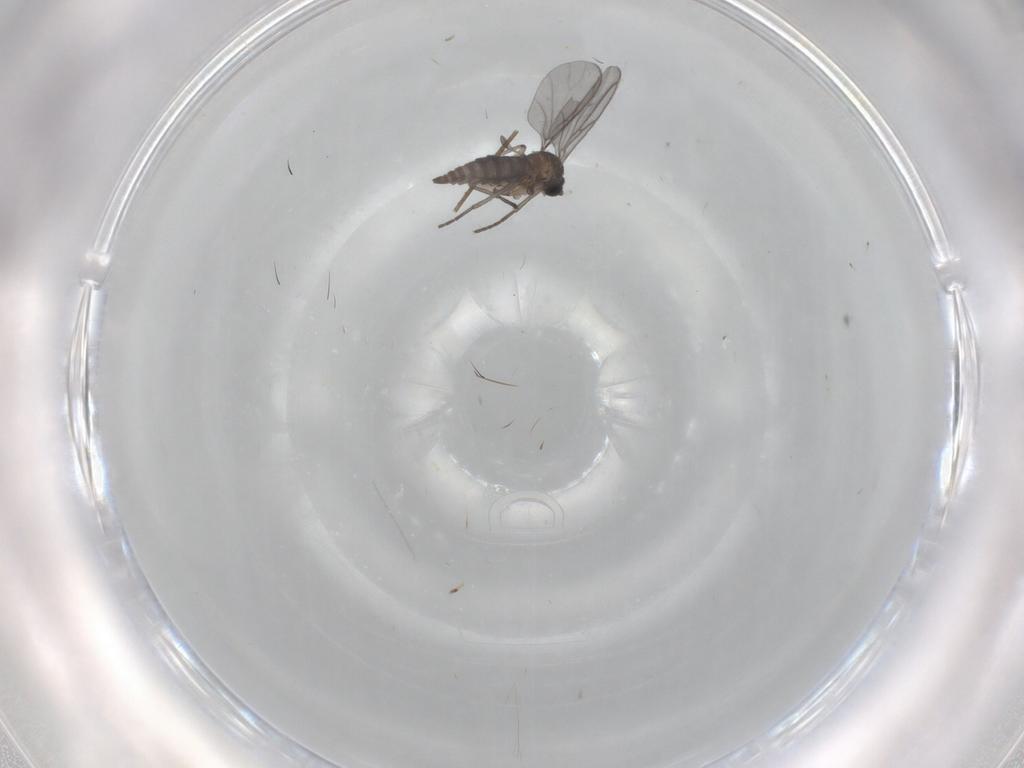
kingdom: Animalia
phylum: Arthropoda
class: Insecta
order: Diptera
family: Sciaridae
